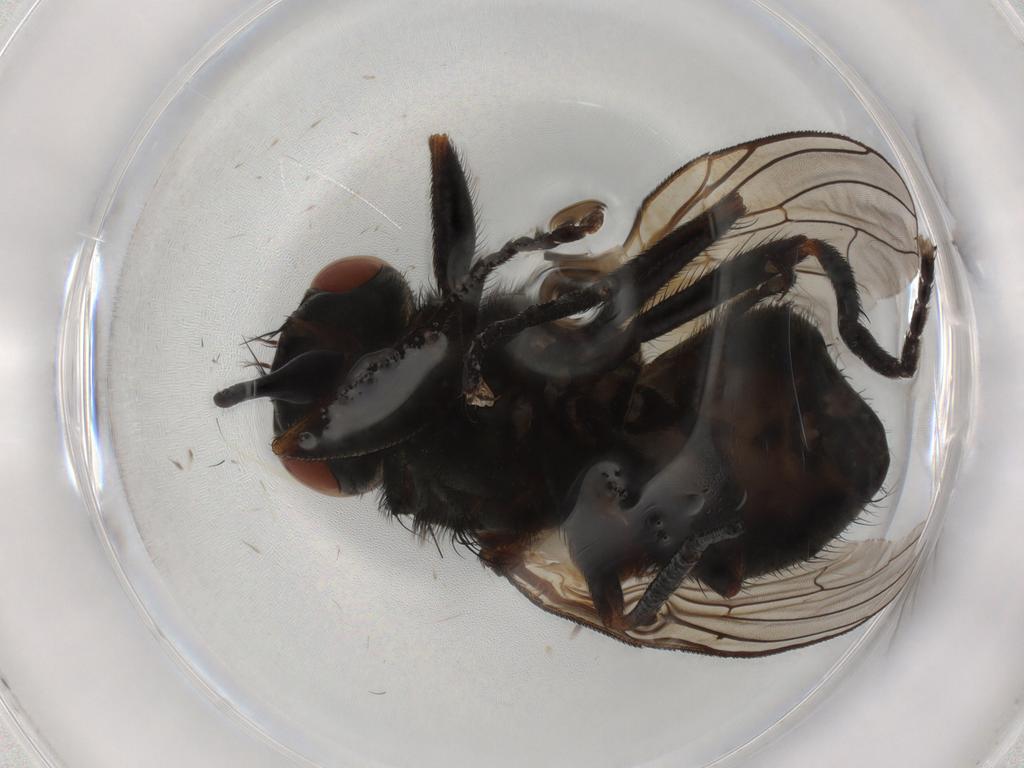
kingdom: Animalia
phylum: Arthropoda
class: Insecta
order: Diptera
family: Muscidae
